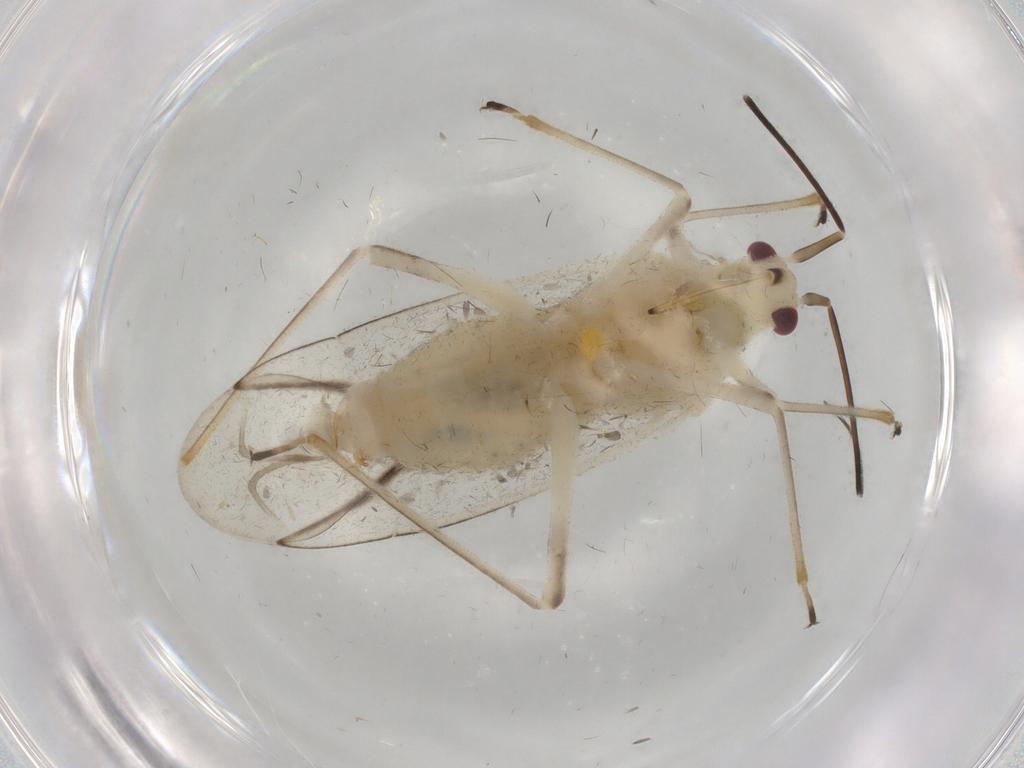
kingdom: Animalia
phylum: Arthropoda
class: Insecta
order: Hemiptera
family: Miridae
